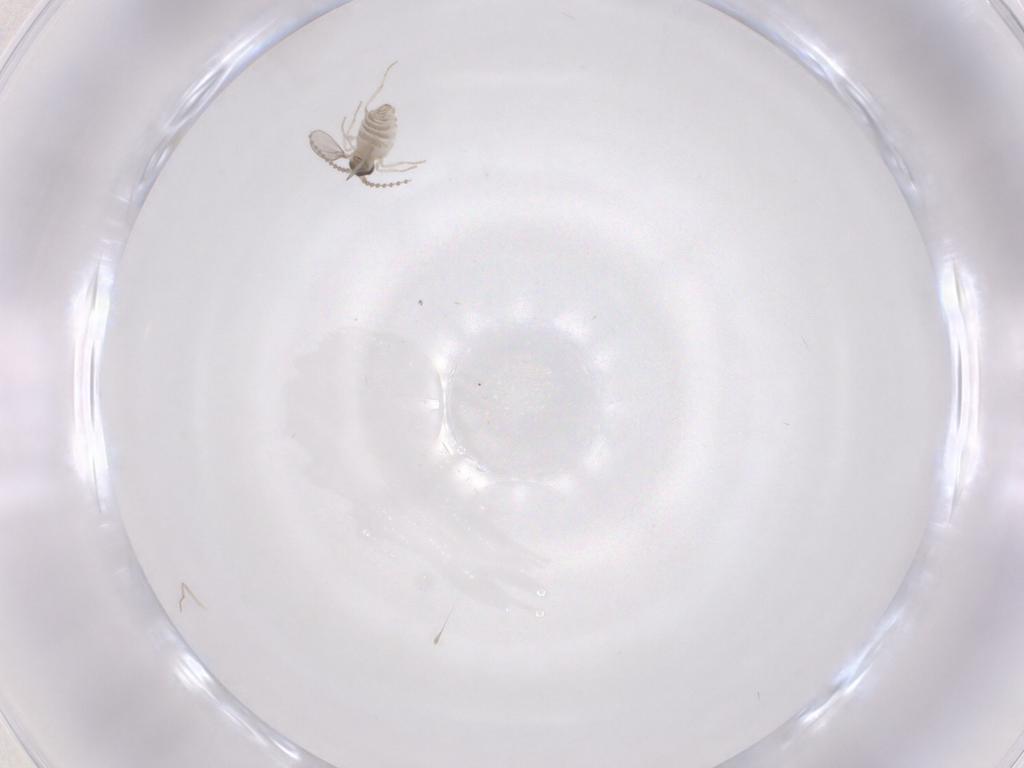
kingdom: Animalia
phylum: Arthropoda
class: Insecta
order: Diptera
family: Cecidomyiidae
